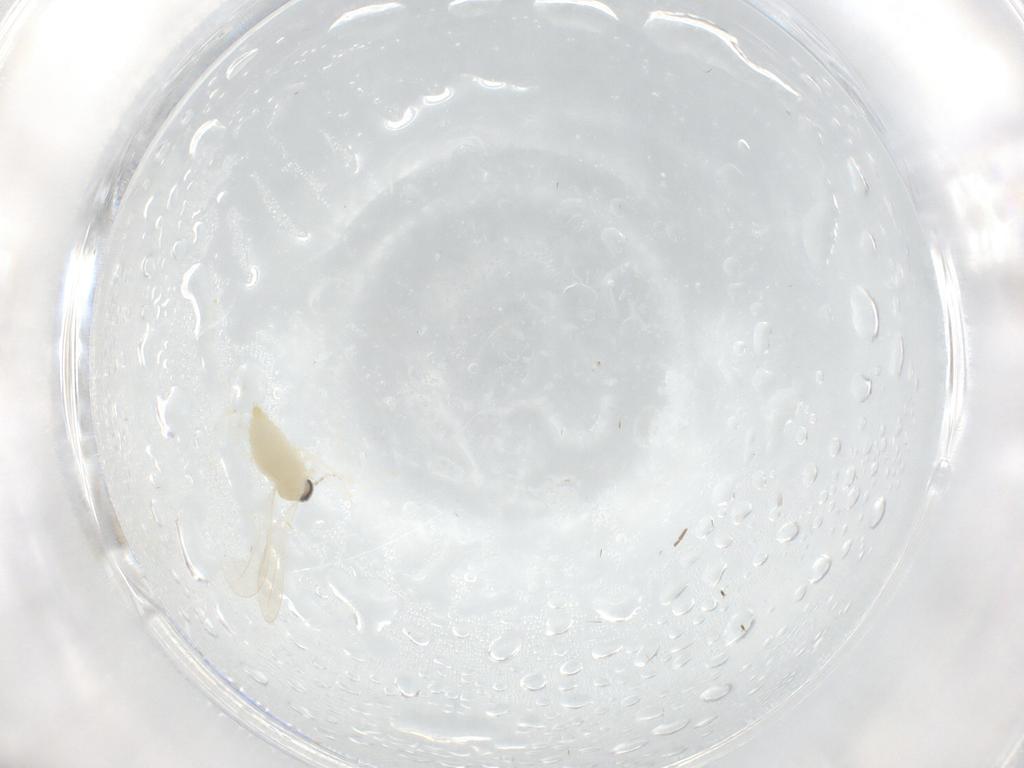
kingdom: Animalia
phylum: Arthropoda
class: Insecta
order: Diptera
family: Chironomidae
